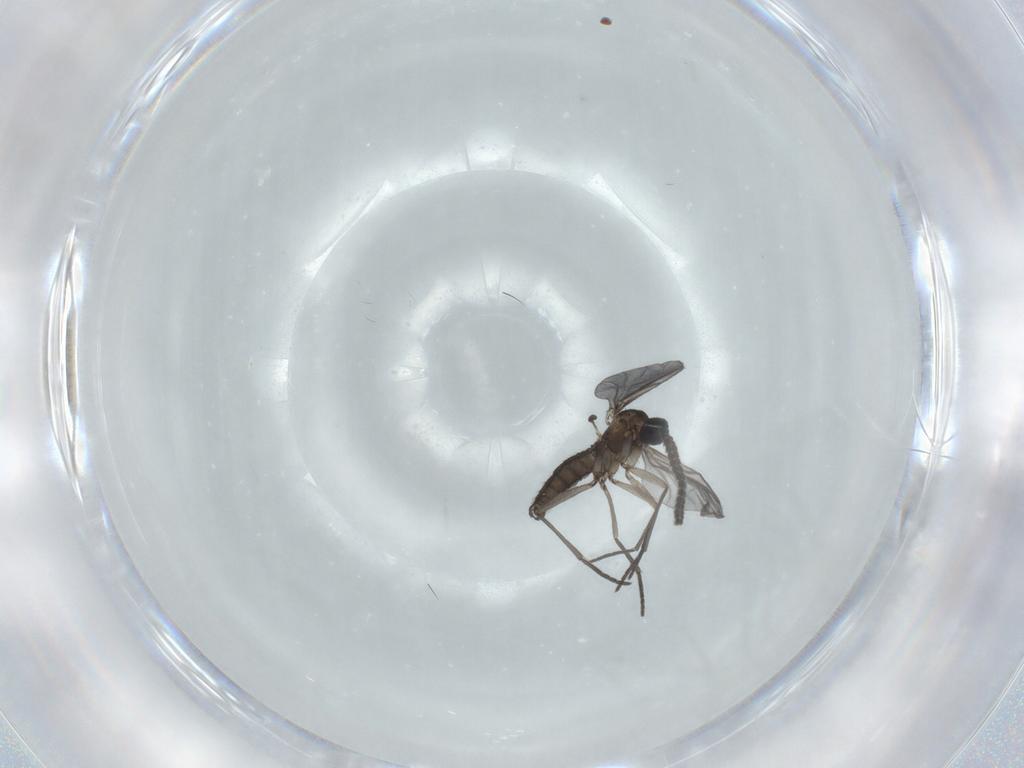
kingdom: Animalia
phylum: Arthropoda
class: Insecta
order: Diptera
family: Chironomidae
